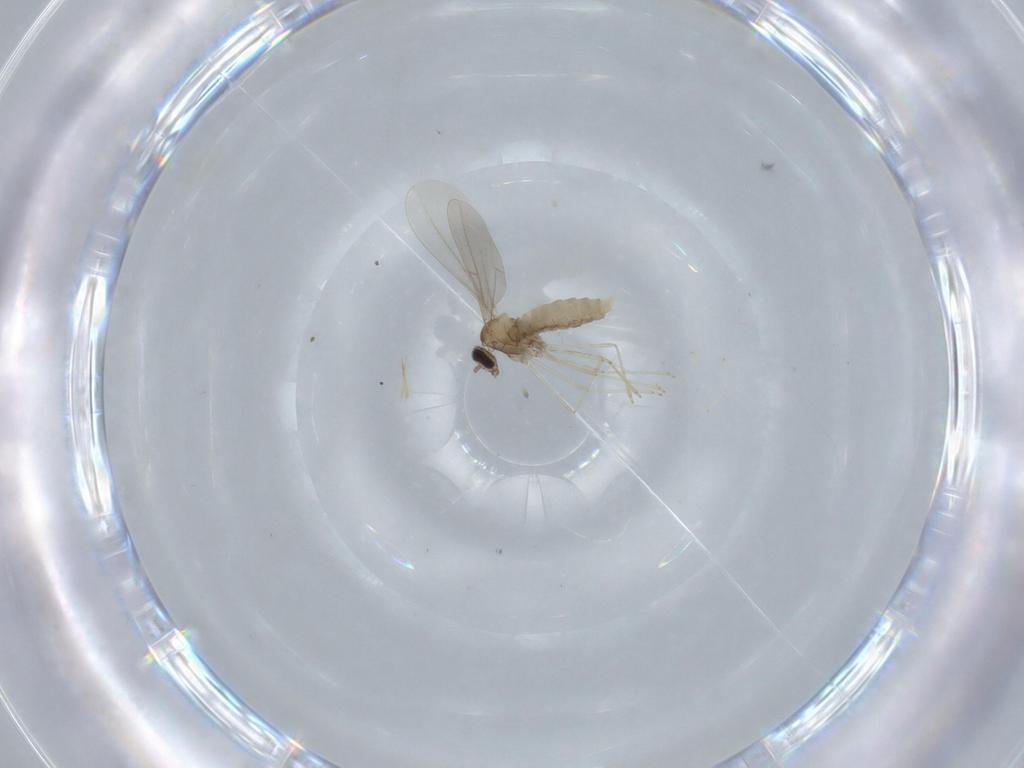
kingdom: Animalia
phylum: Arthropoda
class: Insecta
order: Diptera
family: Cecidomyiidae
